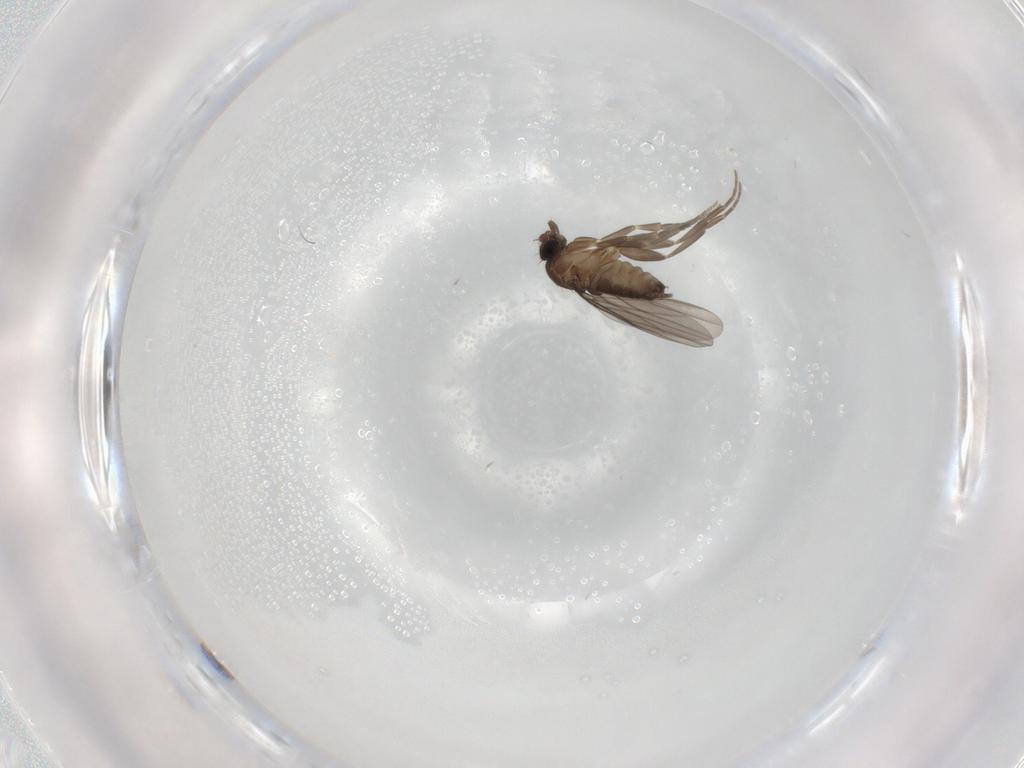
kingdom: Animalia
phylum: Arthropoda
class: Insecta
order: Diptera
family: Phoridae
